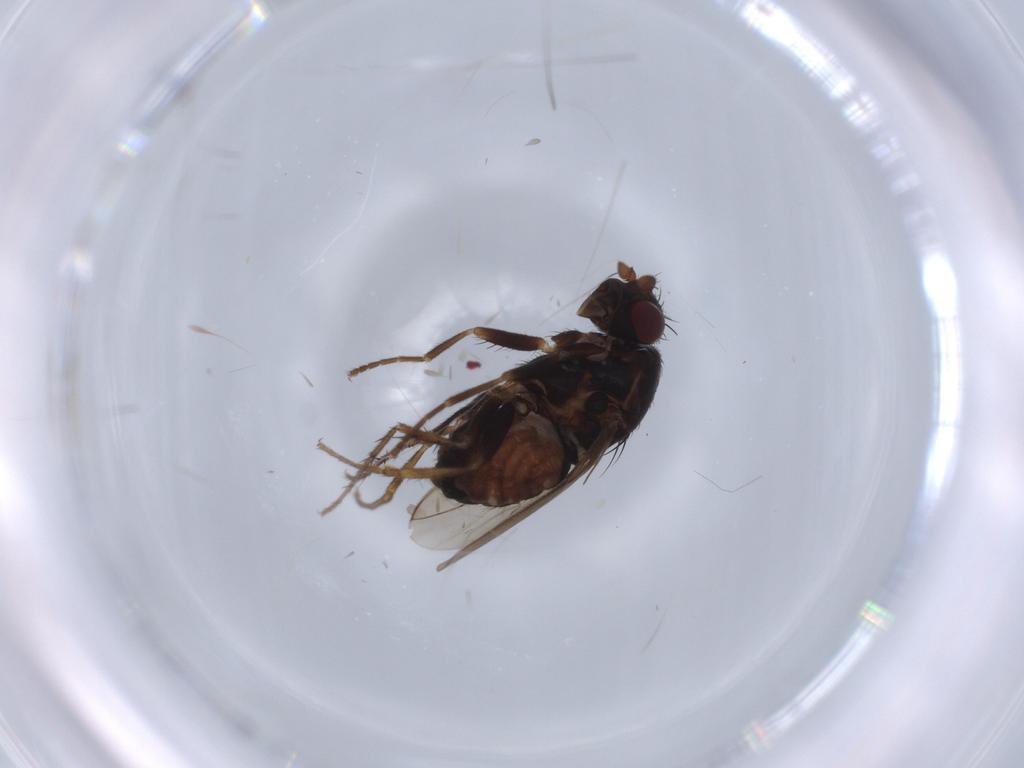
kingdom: Animalia
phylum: Arthropoda
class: Insecta
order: Diptera
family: Sphaeroceridae
